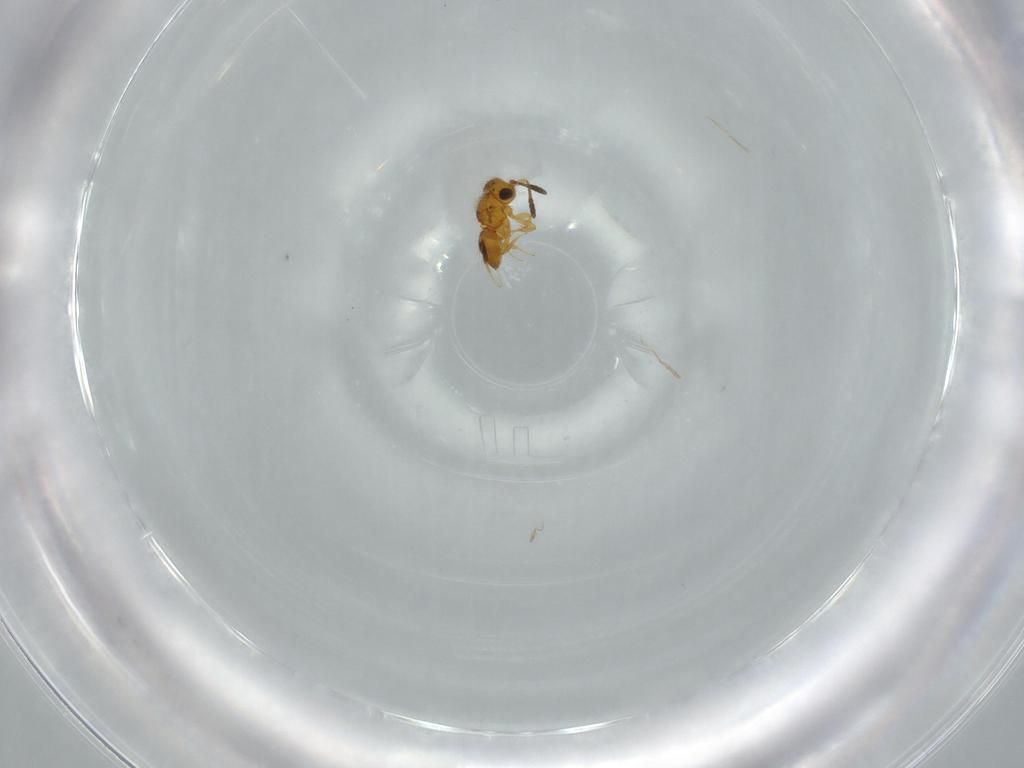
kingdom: Animalia
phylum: Arthropoda
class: Insecta
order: Hymenoptera
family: Scelionidae
